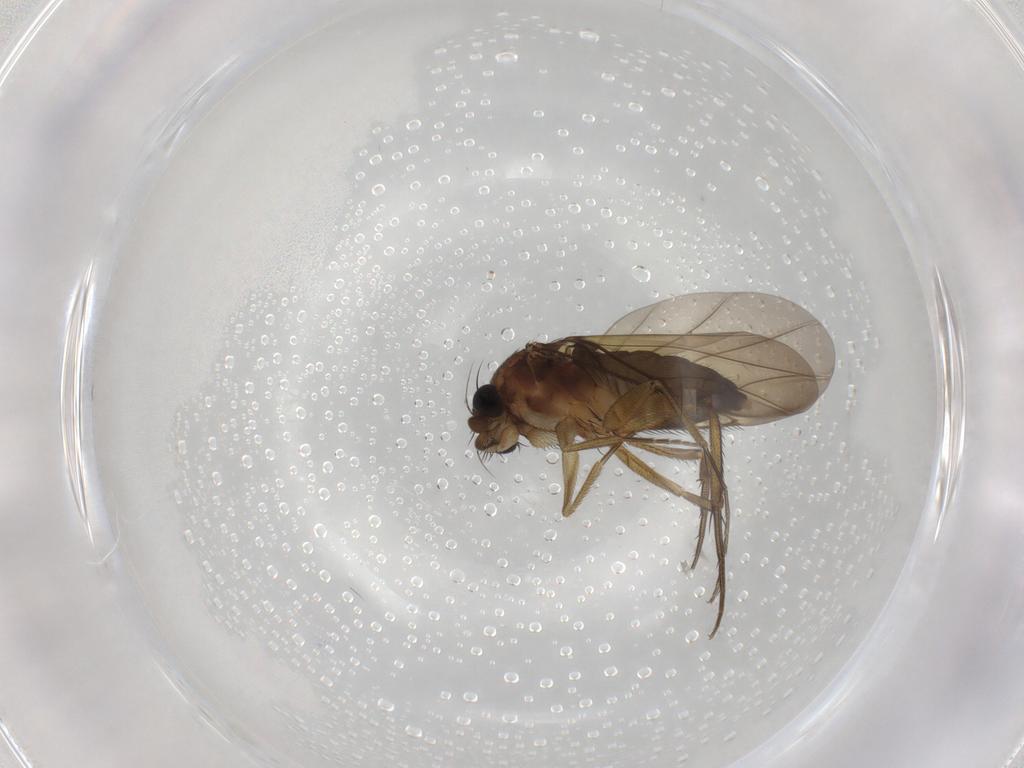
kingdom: Animalia
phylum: Arthropoda
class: Insecta
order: Diptera
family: Phoridae
